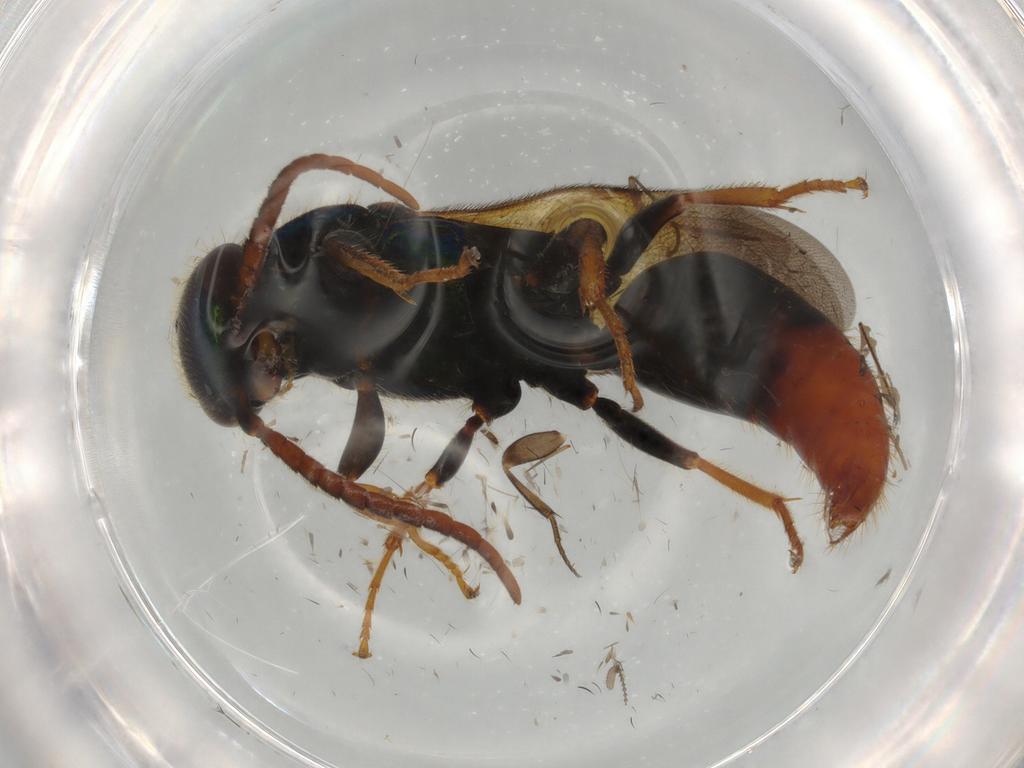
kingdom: Animalia
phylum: Arthropoda
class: Insecta
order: Hymenoptera
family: Bethylidae
